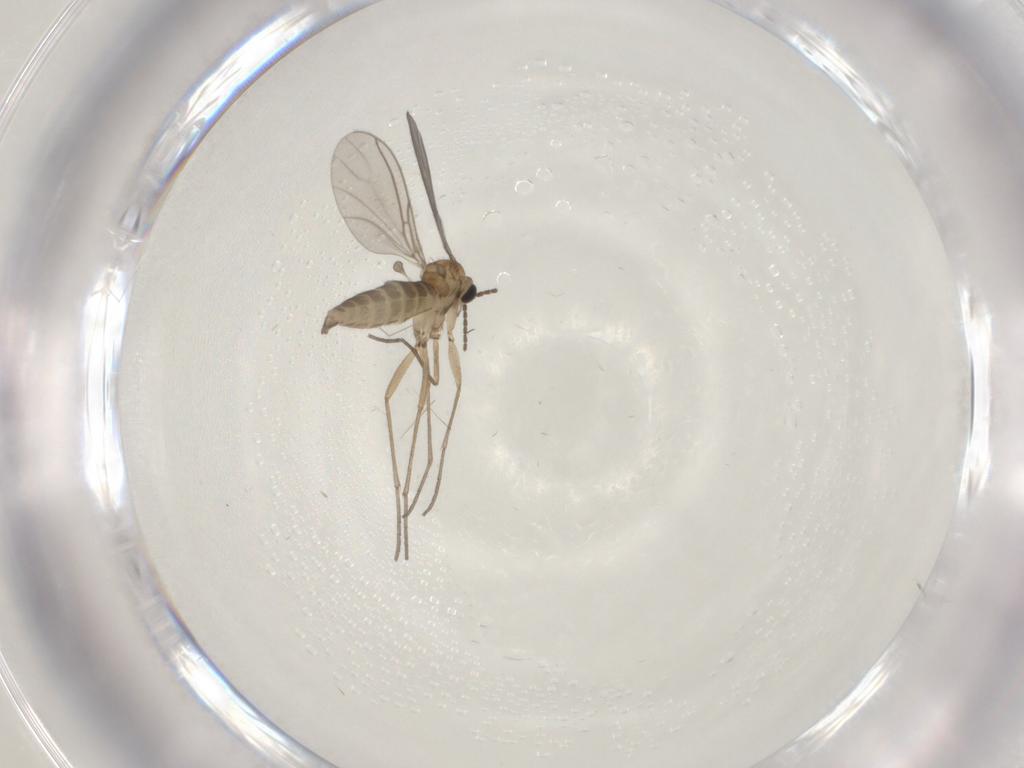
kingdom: Animalia
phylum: Arthropoda
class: Insecta
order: Diptera
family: Sciaridae
